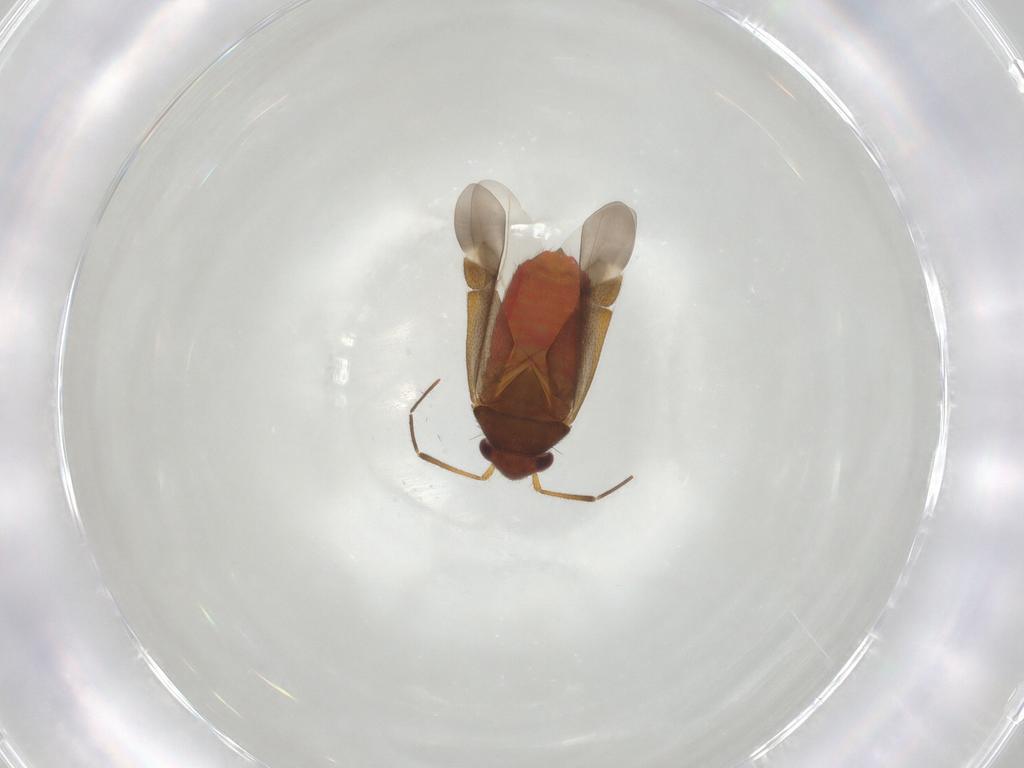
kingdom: Animalia
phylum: Arthropoda
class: Insecta
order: Hemiptera
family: Miridae
